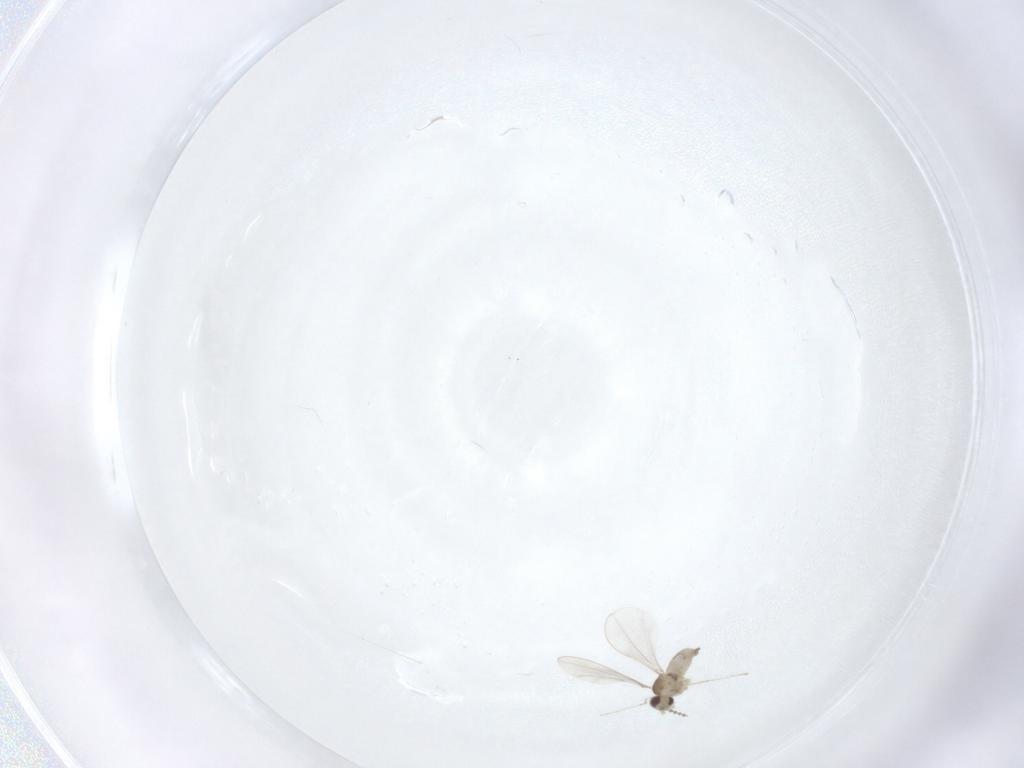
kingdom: Animalia
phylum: Arthropoda
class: Insecta
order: Diptera
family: Cecidomyiidae
